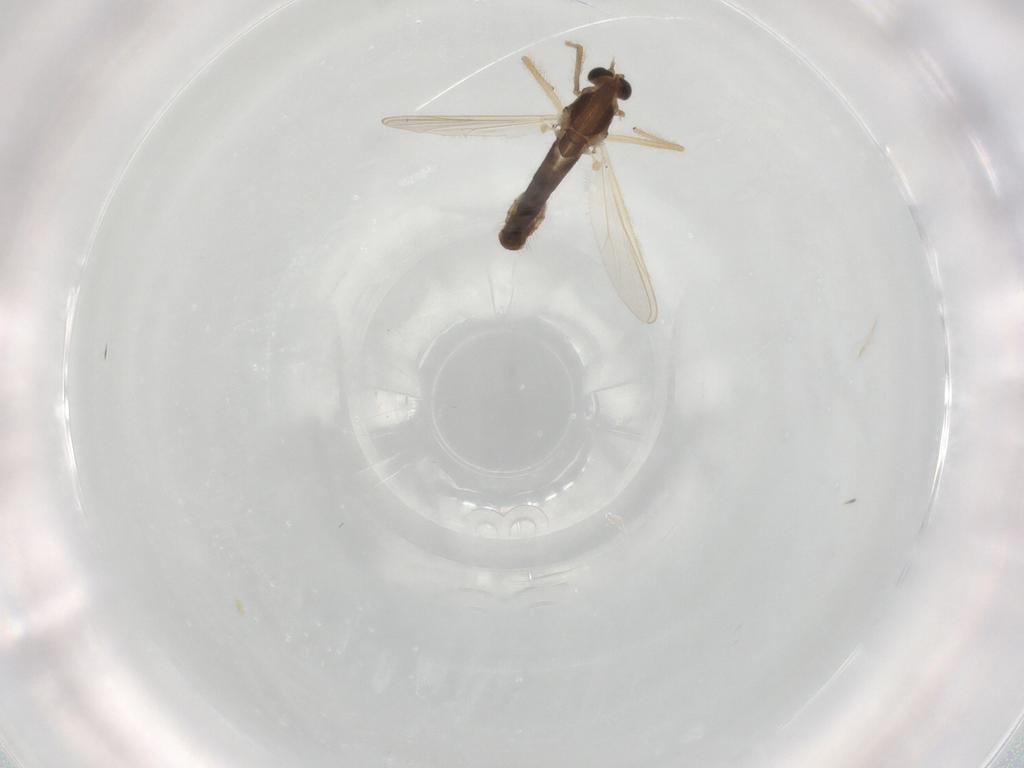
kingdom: Animalia
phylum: Arthropoda
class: Insecta
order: Diptera
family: Chironomidae
